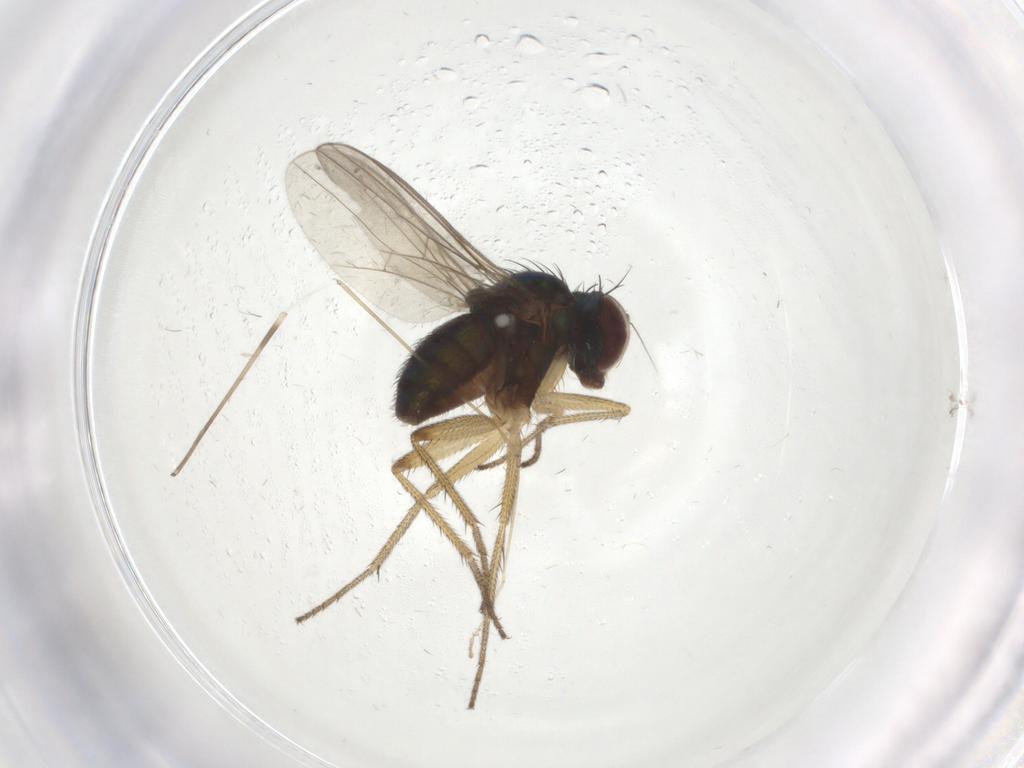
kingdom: Animalia
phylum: Arthropoda
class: Insecta
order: Diptera
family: Dolichopodidae
